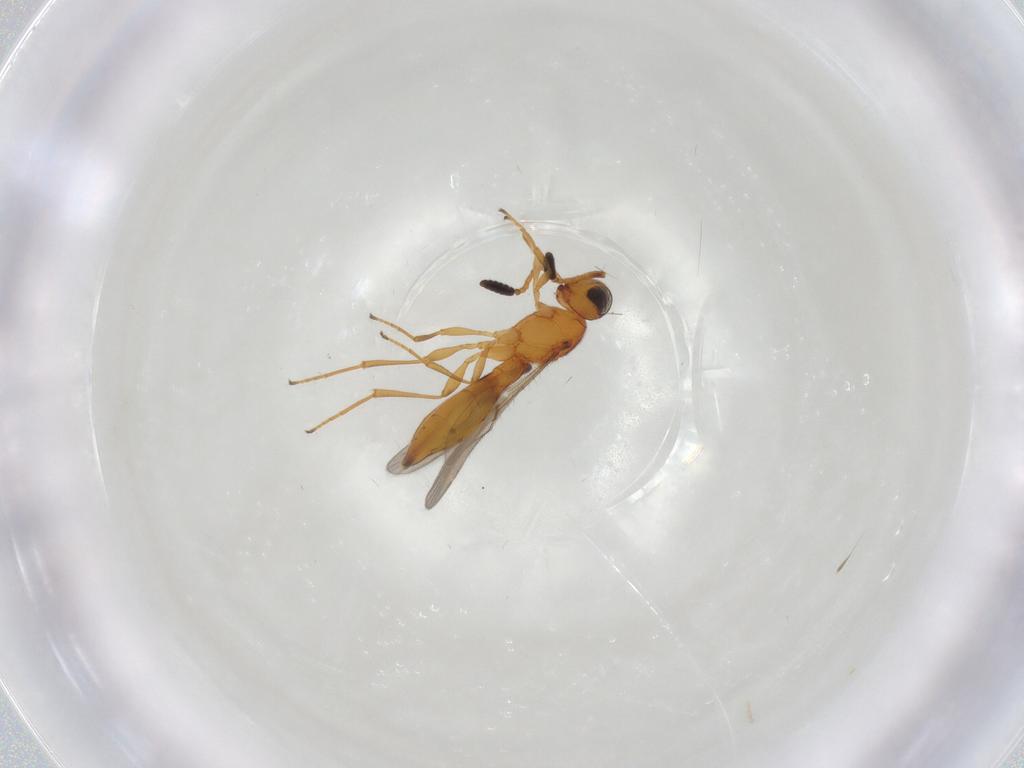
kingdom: Animalia
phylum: Arthropoda
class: Insecta
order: Hymenoptera
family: Scelionidae
